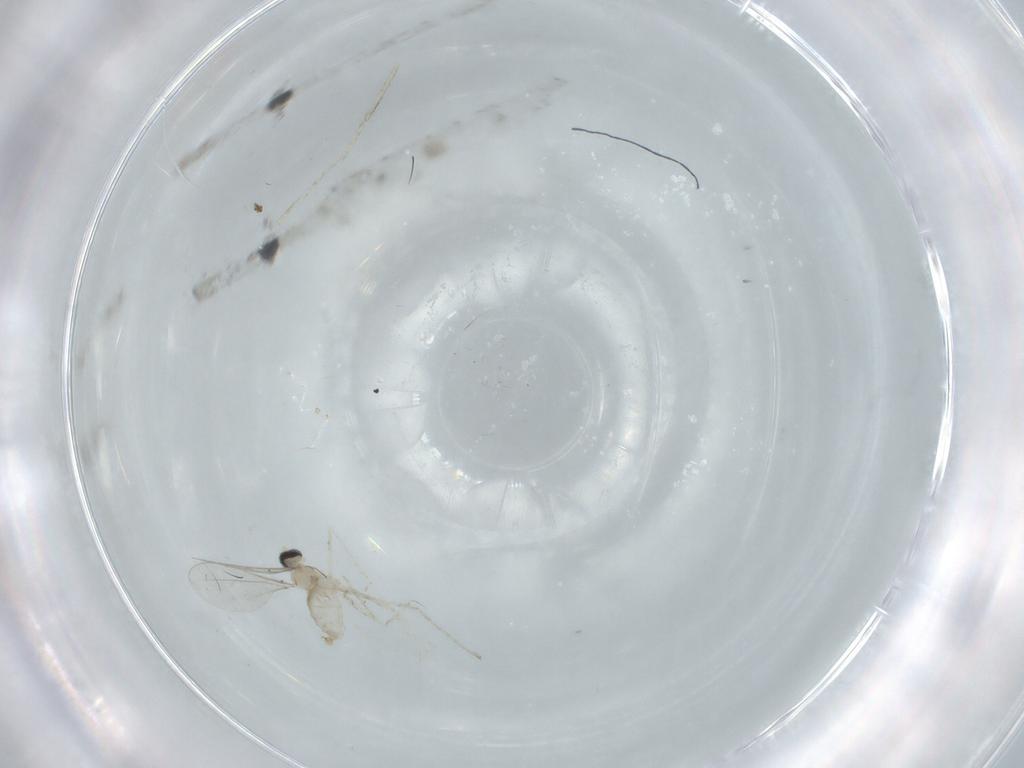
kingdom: Animalia
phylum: Arthropoda
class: Insecta
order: Diptera
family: Cecidomyiidae
